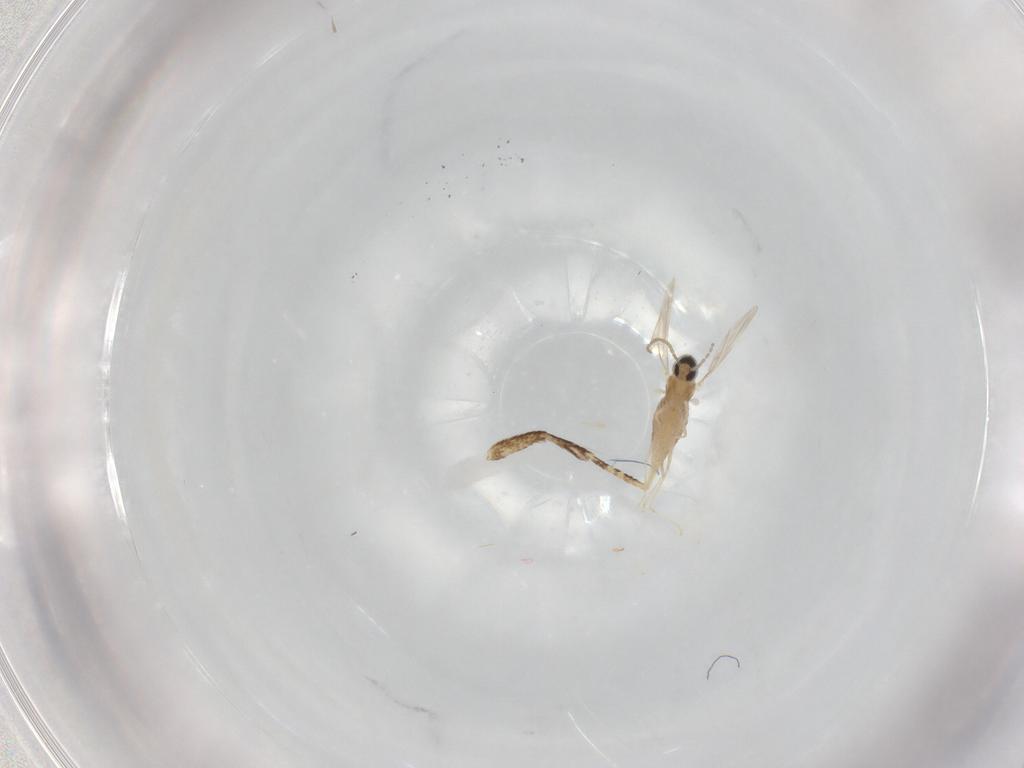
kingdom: Animalia
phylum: Arthropoda
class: Insecta
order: Diptera
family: Cecidomyiidae
